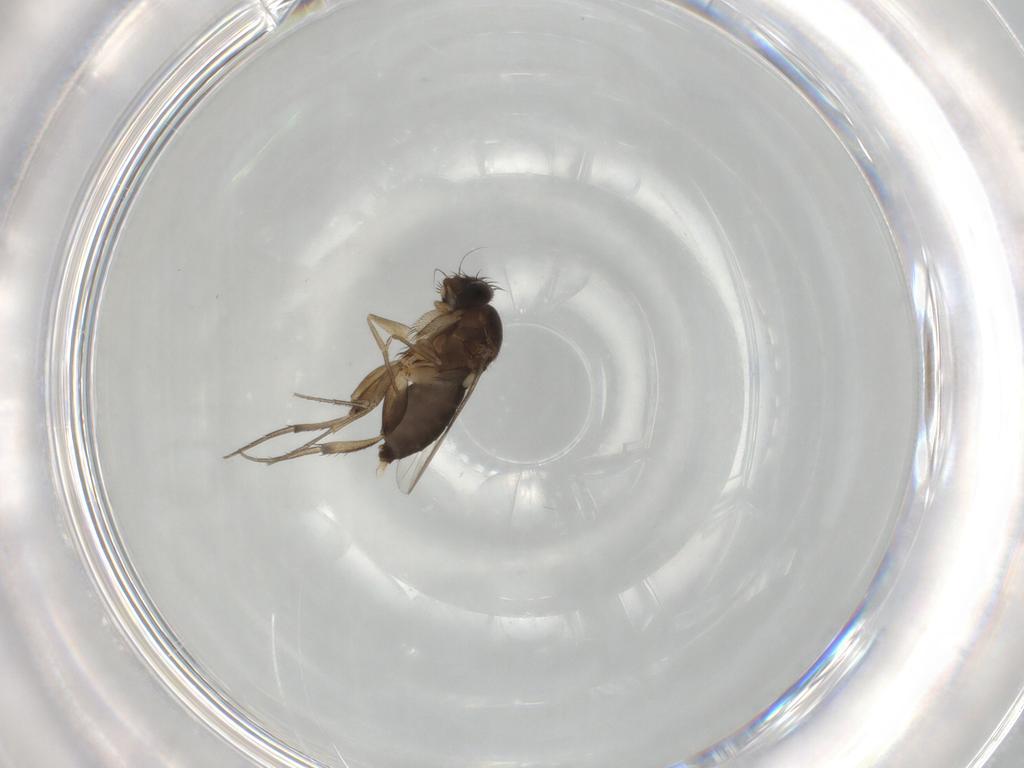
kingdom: Animalia
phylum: Arthropoda
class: Insecta
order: Diptera
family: Phoridae
